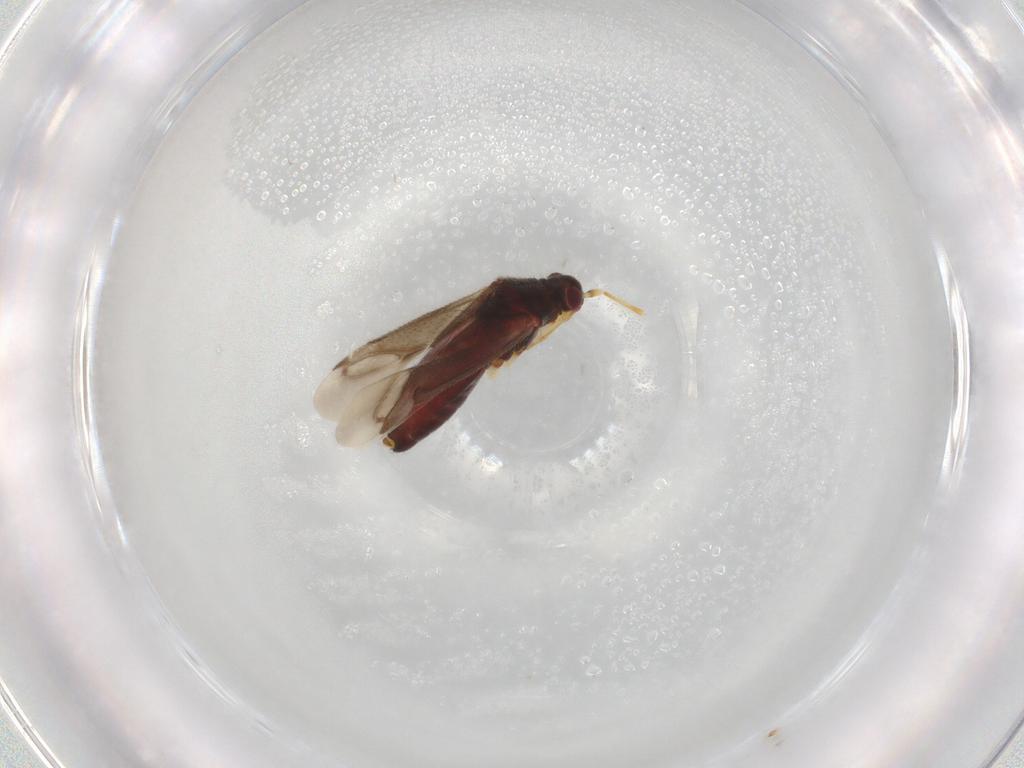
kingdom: Animalia
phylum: Arthropoda
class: Insecta
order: Hemiptera
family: Miridae
